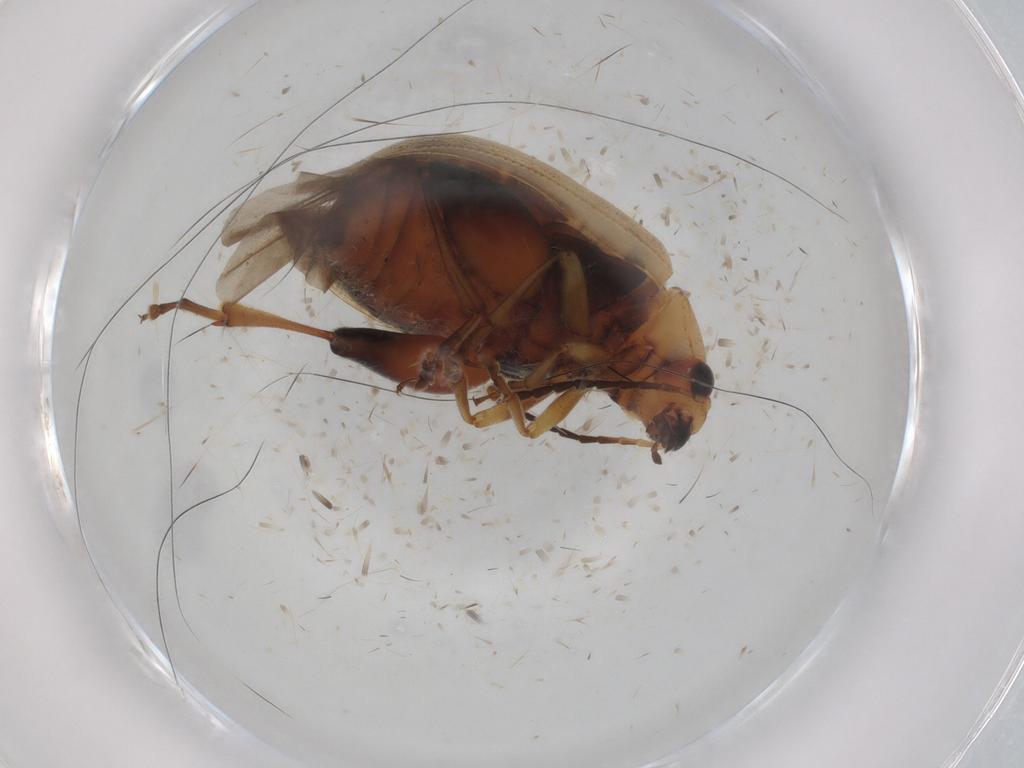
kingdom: Animalia
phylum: Arthropoda
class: Insecta
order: Coleoptera
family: Chrysomelidae
